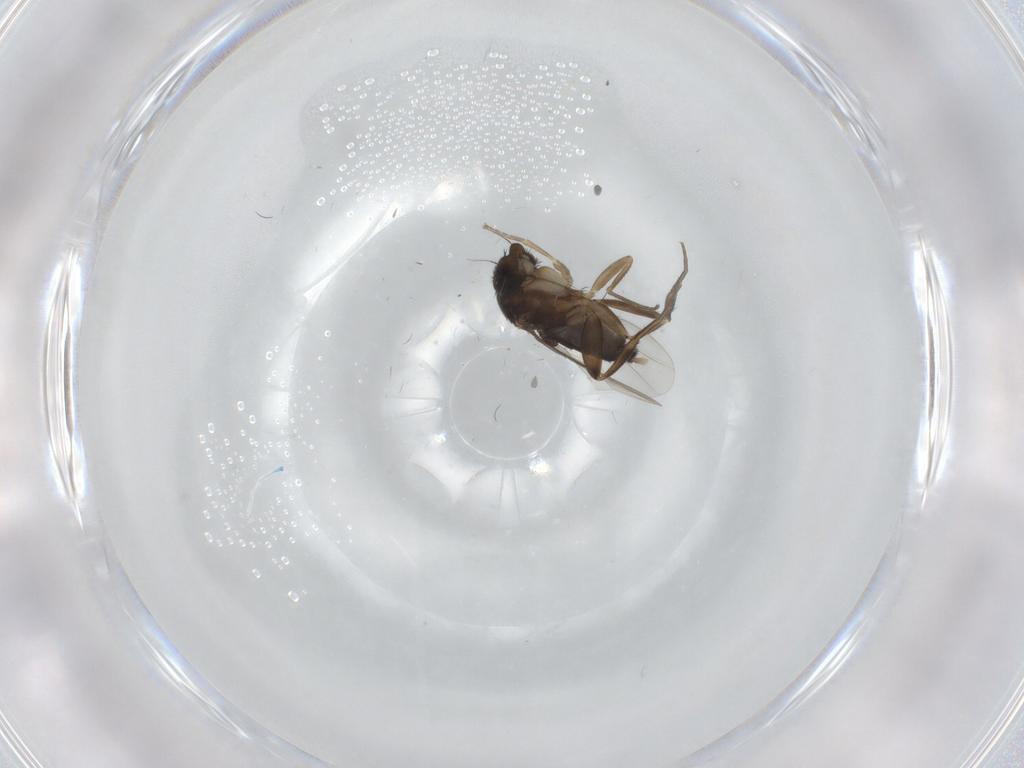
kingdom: Animalia
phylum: Arthropoda
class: Insecta
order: Diptera
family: Phoridae
